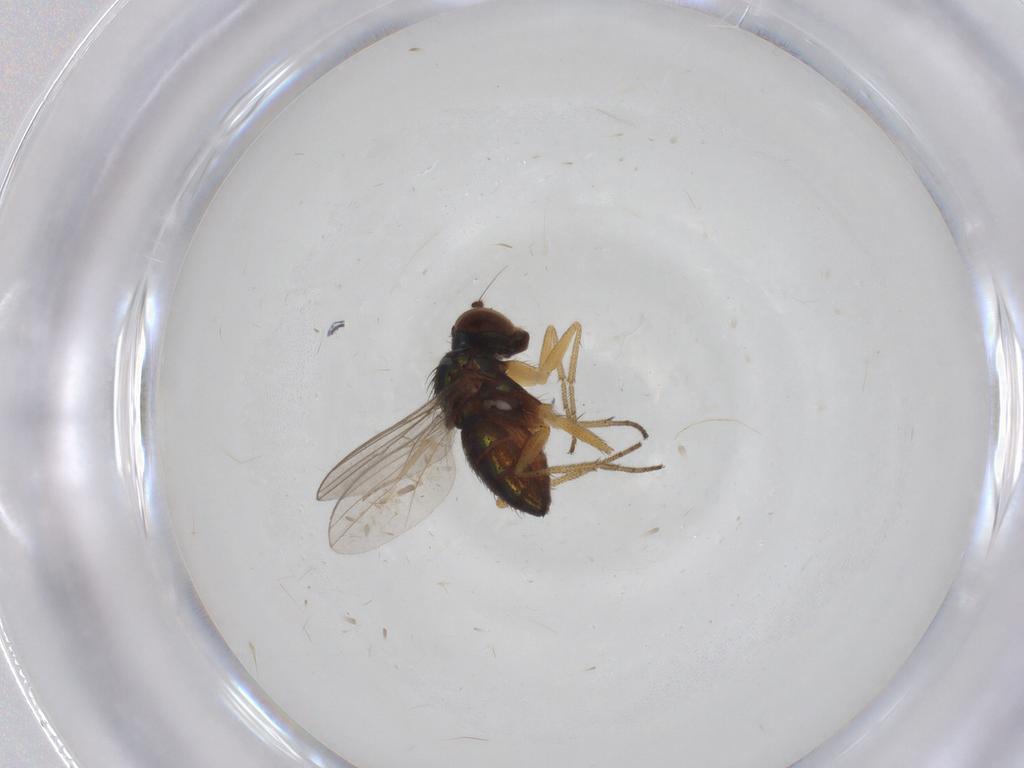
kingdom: Animalia
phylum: Arthropoda
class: Insecta
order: Diptera
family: Dolichopodidae
